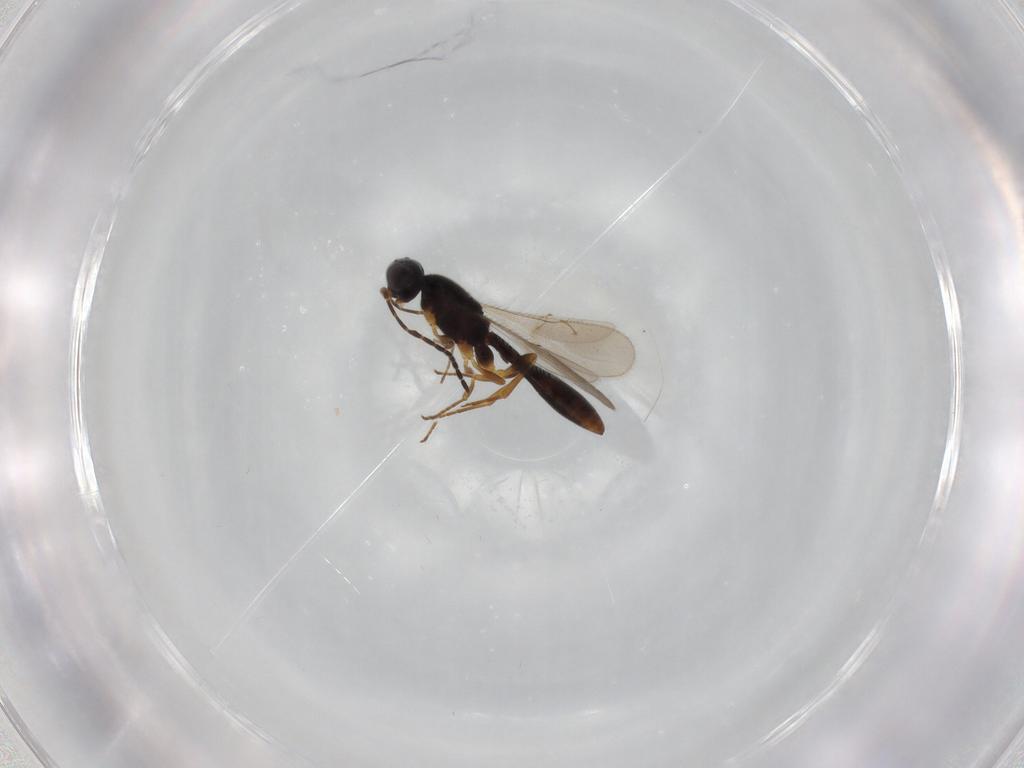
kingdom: Animalia
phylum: Arthropoda
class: Insecta
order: Hymenoptera
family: Scelionidae
